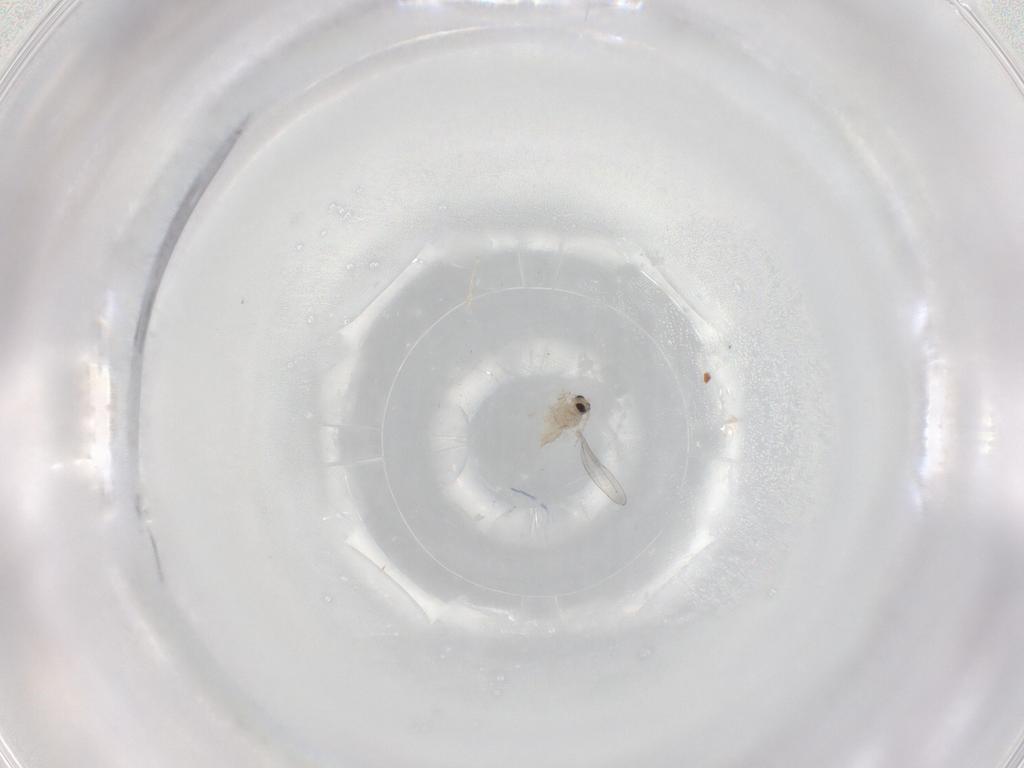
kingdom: Animalia
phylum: Arthropoda
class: Insecta
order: Diptera
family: Cecidomyiidae
